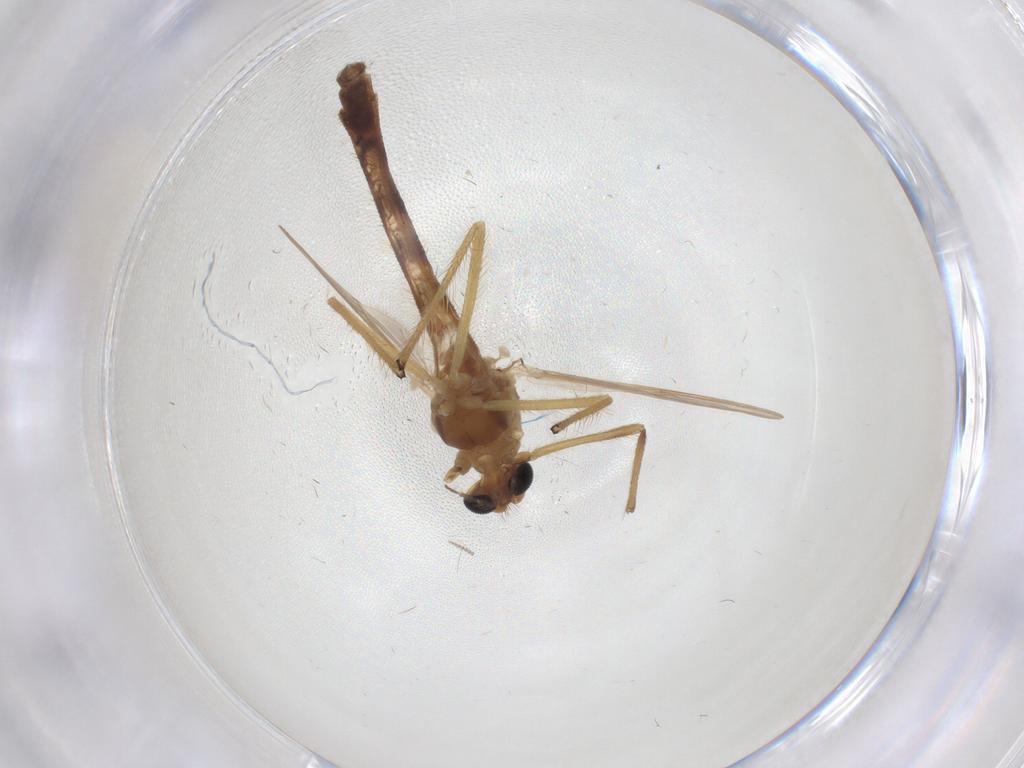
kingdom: Animalia
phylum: Arthropoda
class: Insecta
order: Diptera
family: Chironomidae
